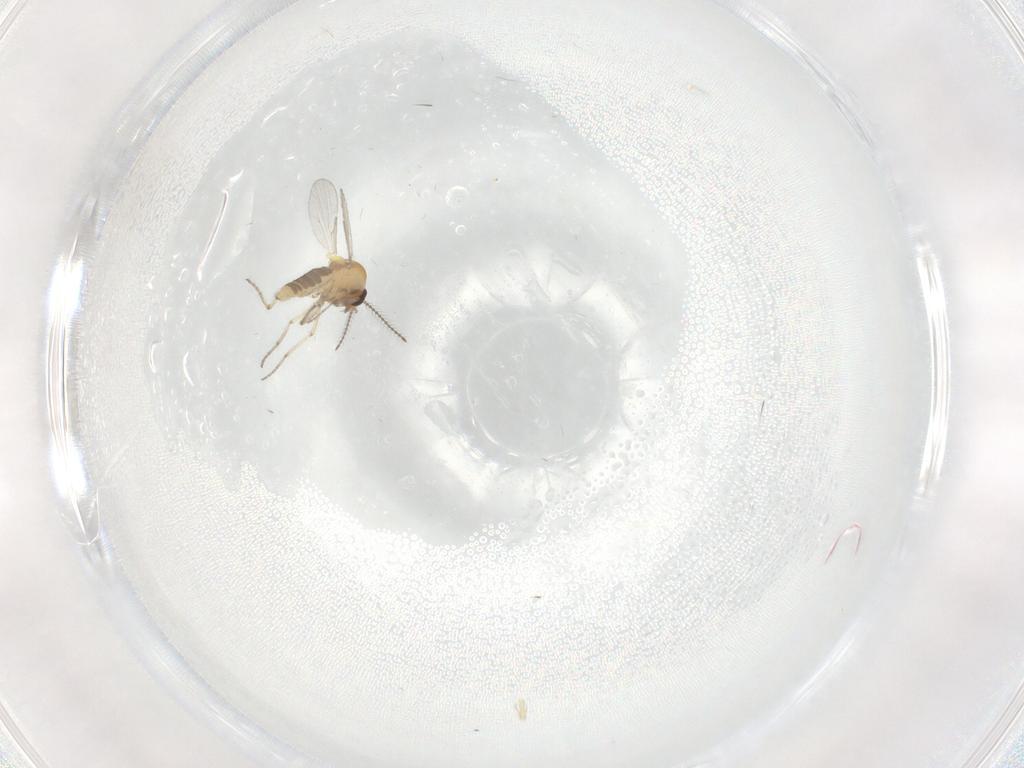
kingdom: Animalia
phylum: Arthropoda
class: Insecta
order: Diptera
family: Ceratopogonidae
